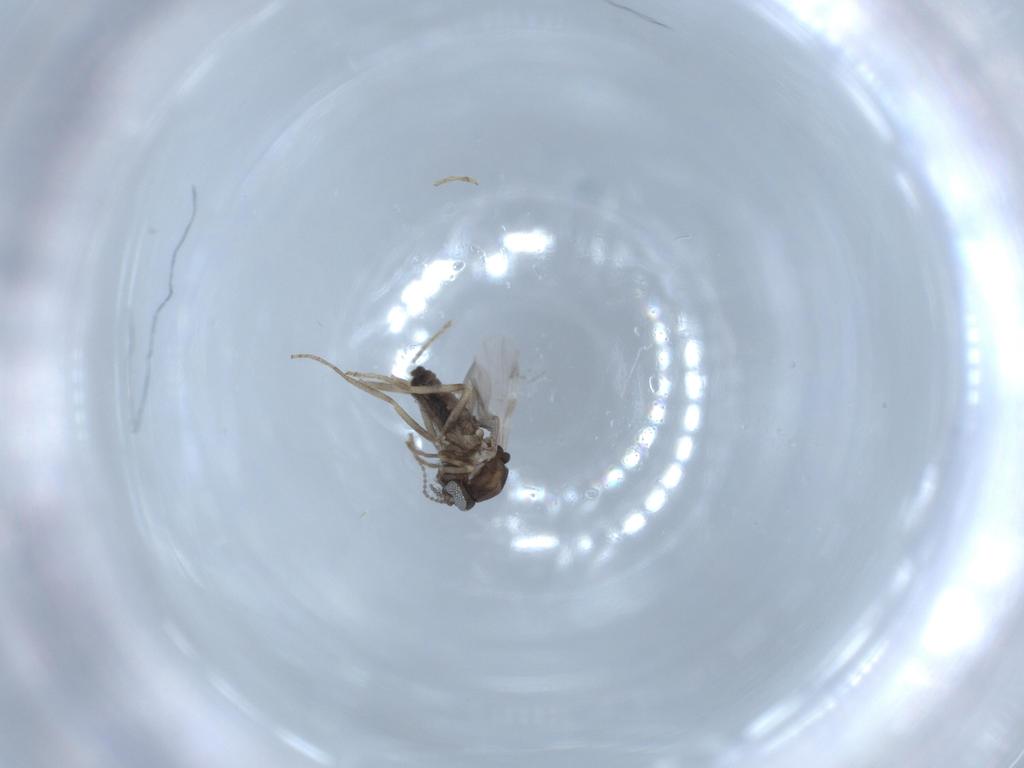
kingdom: Animalia
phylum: Arthropoda
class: Insecta
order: Diptera
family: Ceratopogonidae
